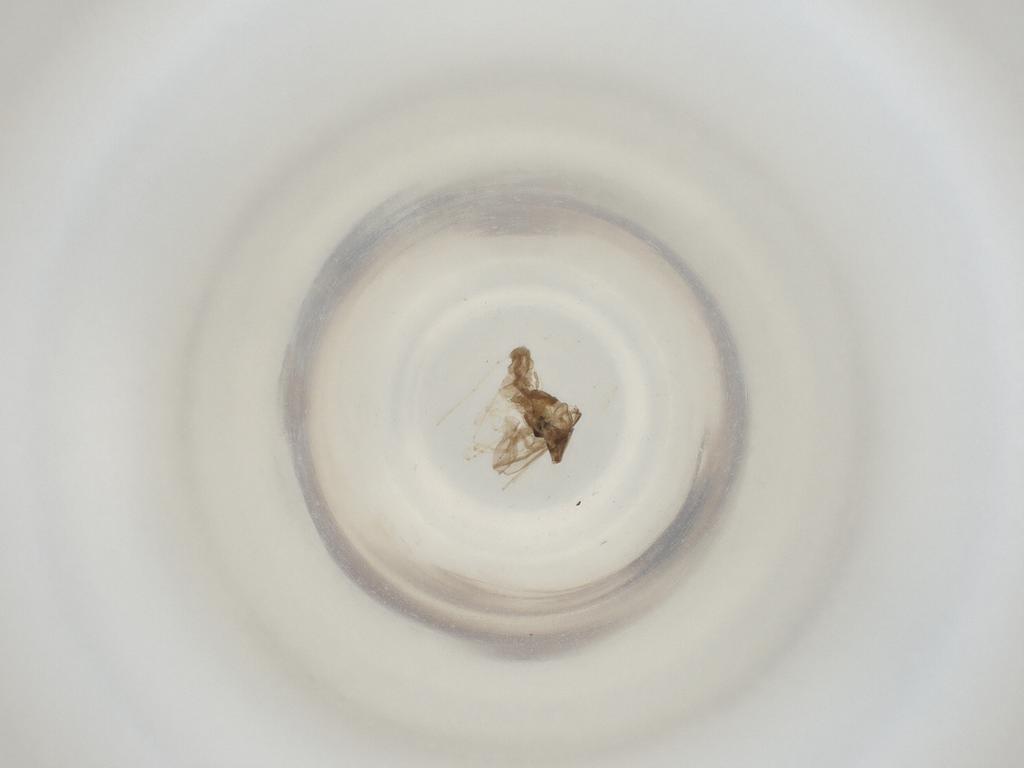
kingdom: Animalia
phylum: Arthropoda
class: Insecta
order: Diptera
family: Cecidomyiidae
